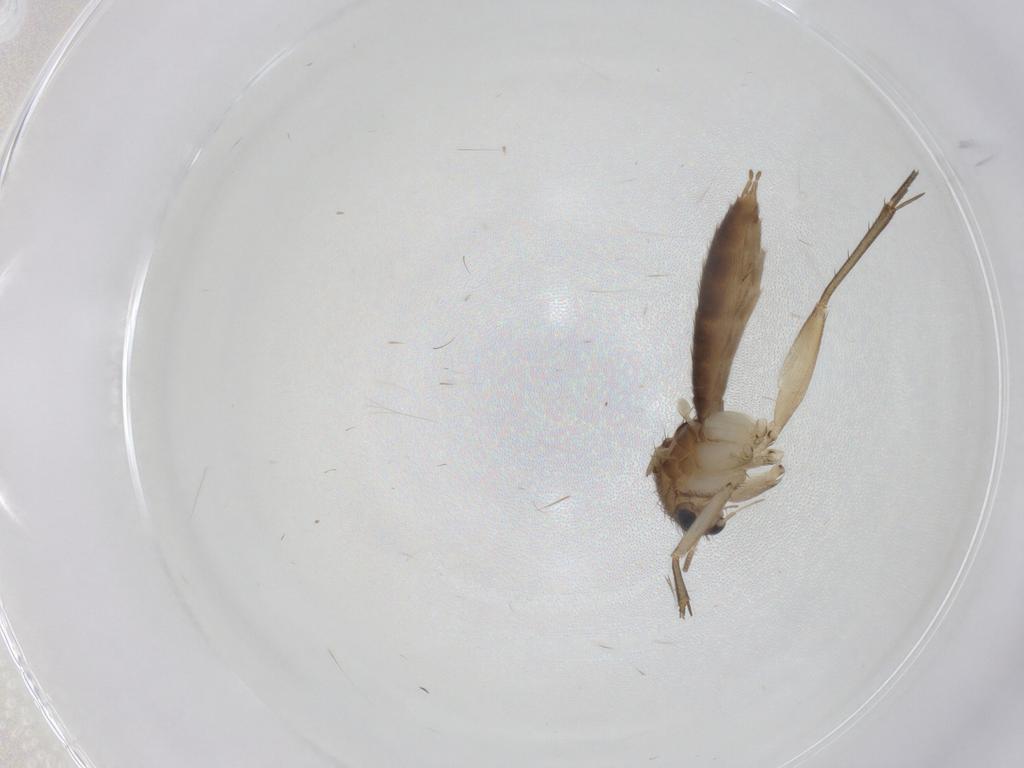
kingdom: Animalia
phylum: Arthropoda
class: Insecta
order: Diptera
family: Mycetophilidae
